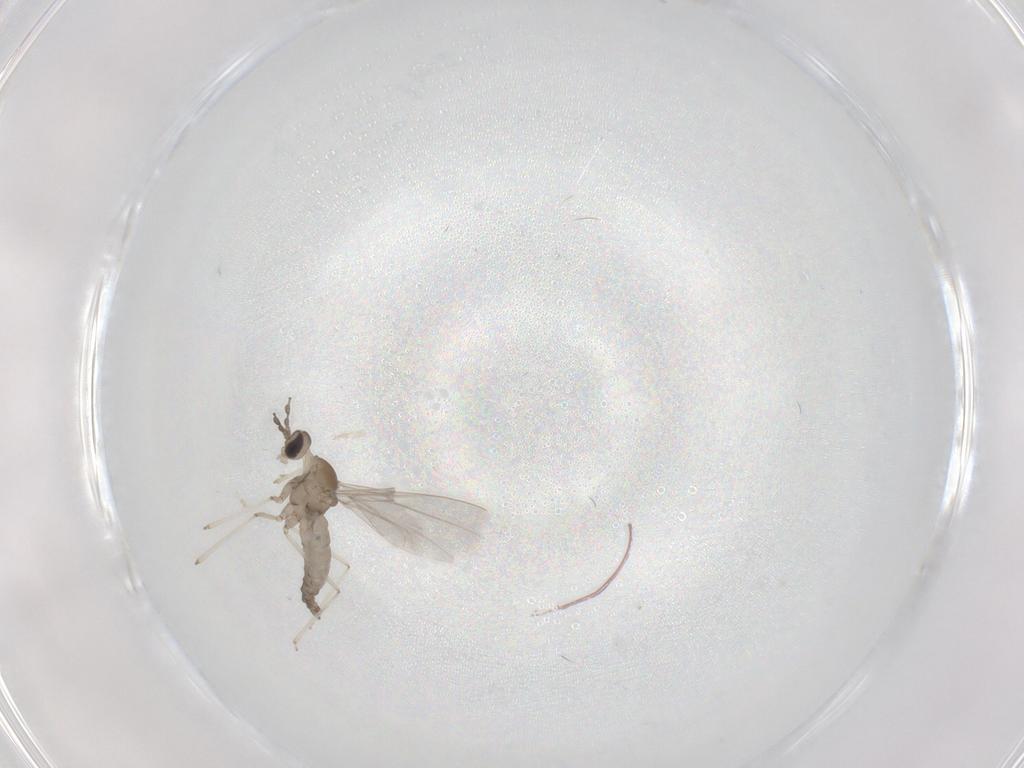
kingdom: Animalia
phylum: Arthropoda
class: Insecta
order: Diptera
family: Cecidomyiidae
